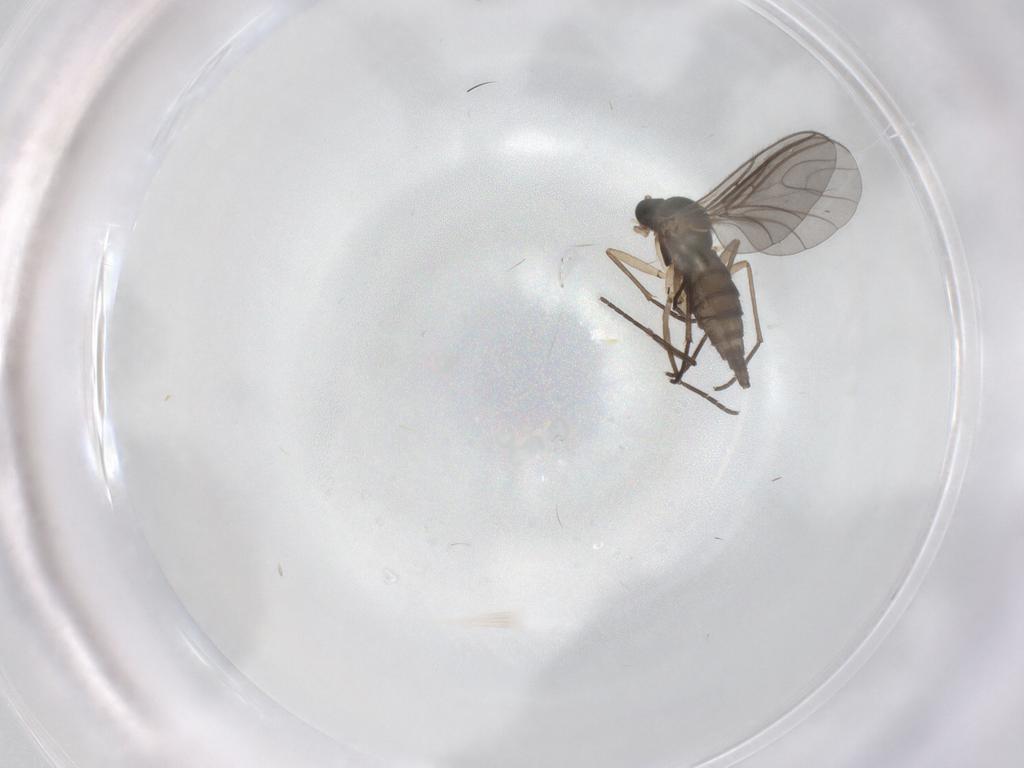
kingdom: Animalia
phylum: Arthropoda
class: Insecta
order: Diptera
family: Sciaridae
